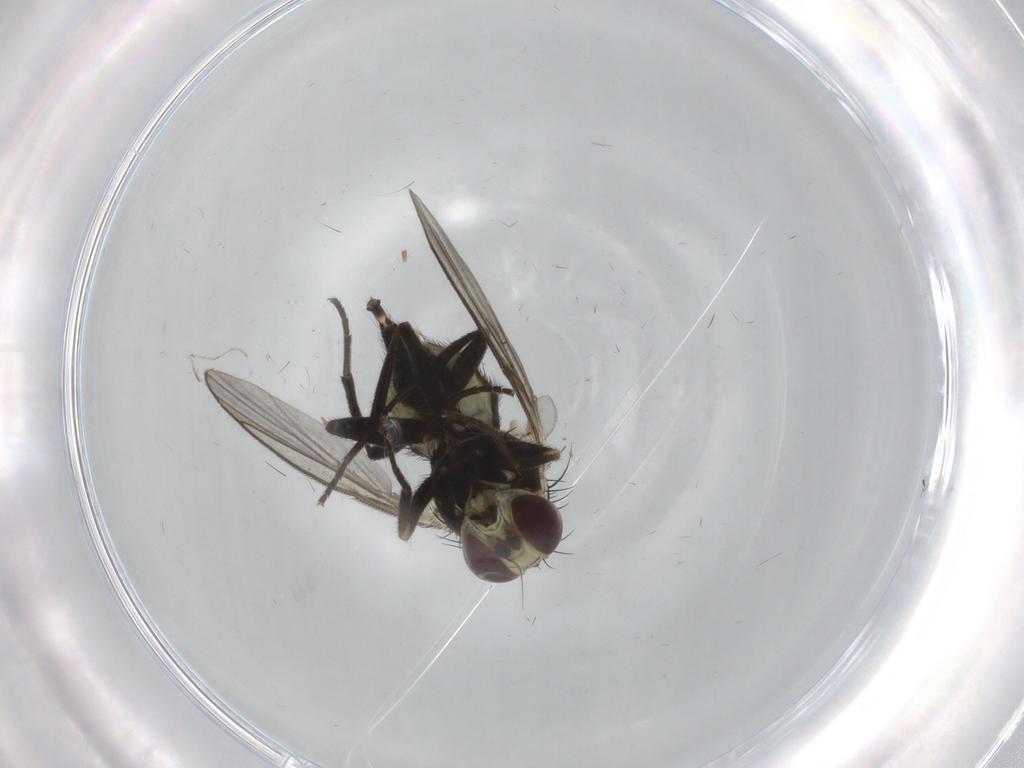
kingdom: Animalia
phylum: Arthropoda
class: Insecta
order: Diptera
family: Agromyzidae
